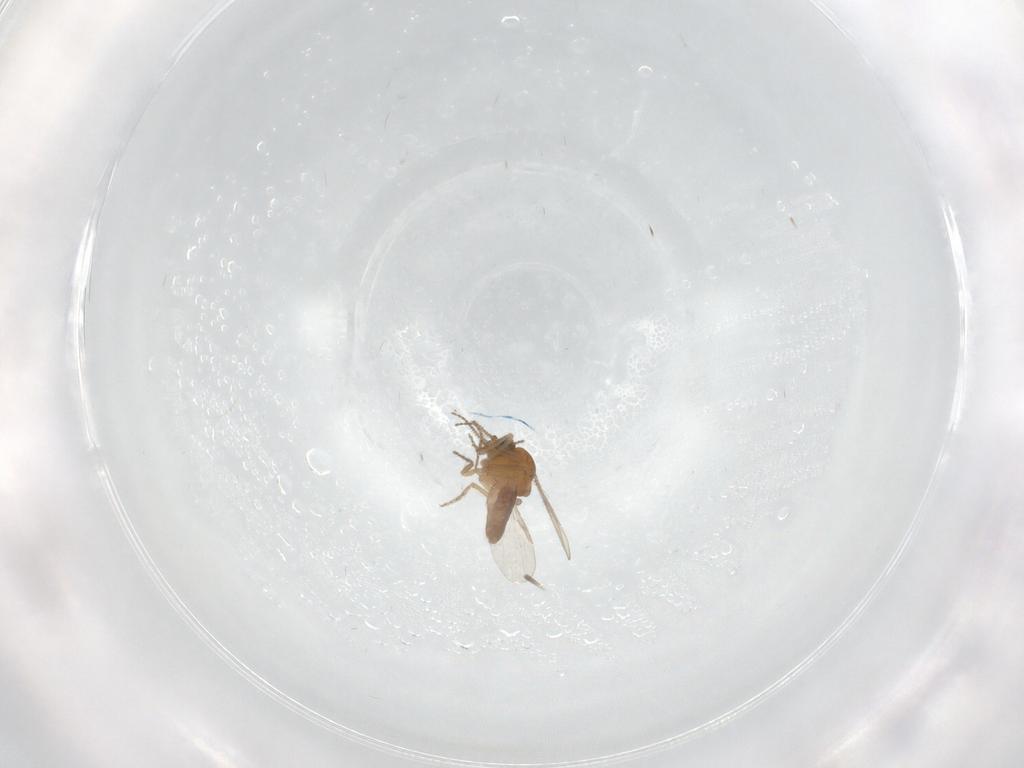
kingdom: Animalia
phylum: Arthropoda
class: Insecta
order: Diptera
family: Ceratopogonidae
